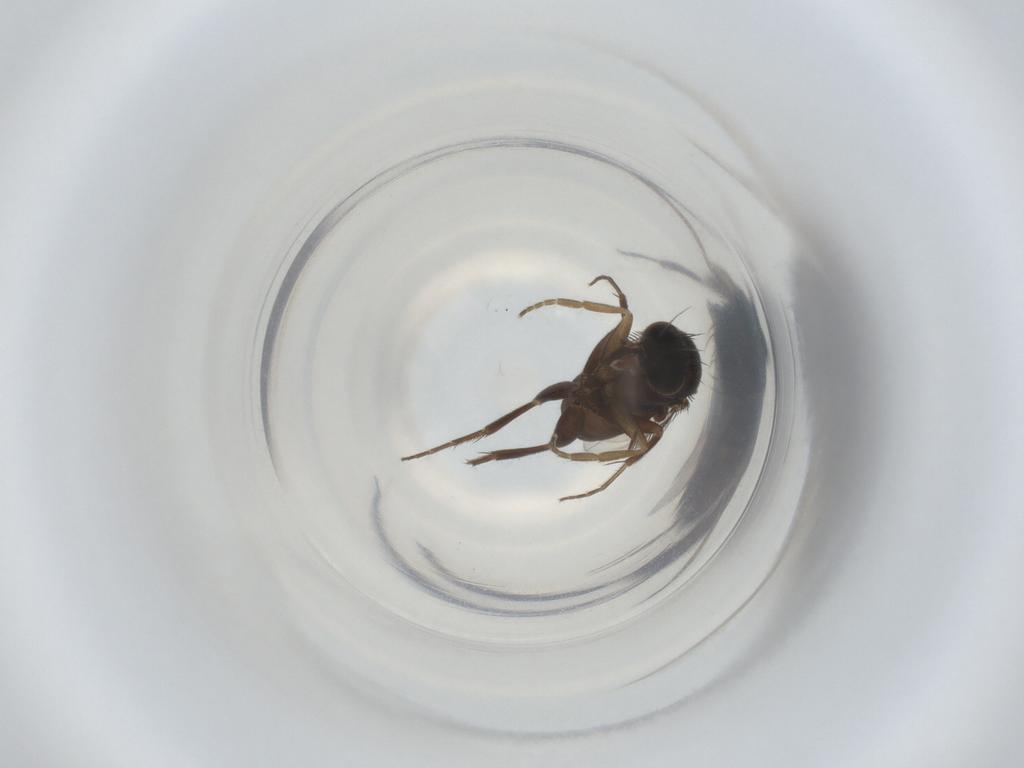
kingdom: Animalia
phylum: Arthropoda
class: Insecta
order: Diptera
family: Phoridae
